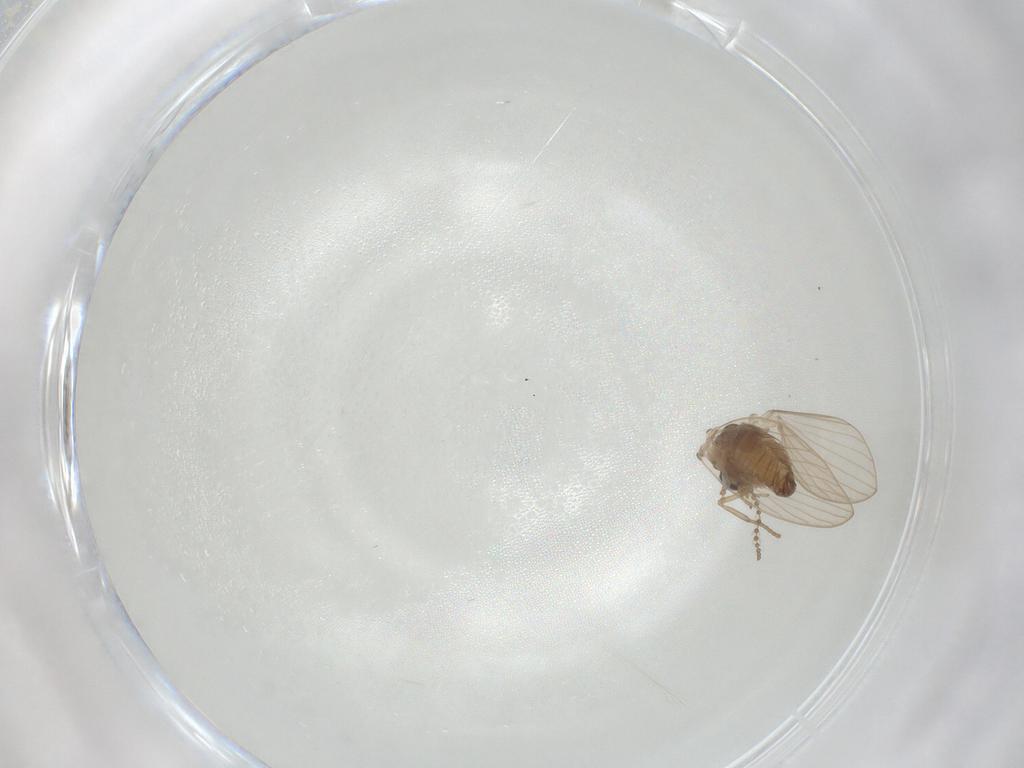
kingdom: Animalia
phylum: Arthropoda
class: Insecta
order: Diptera
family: Psychodidae
